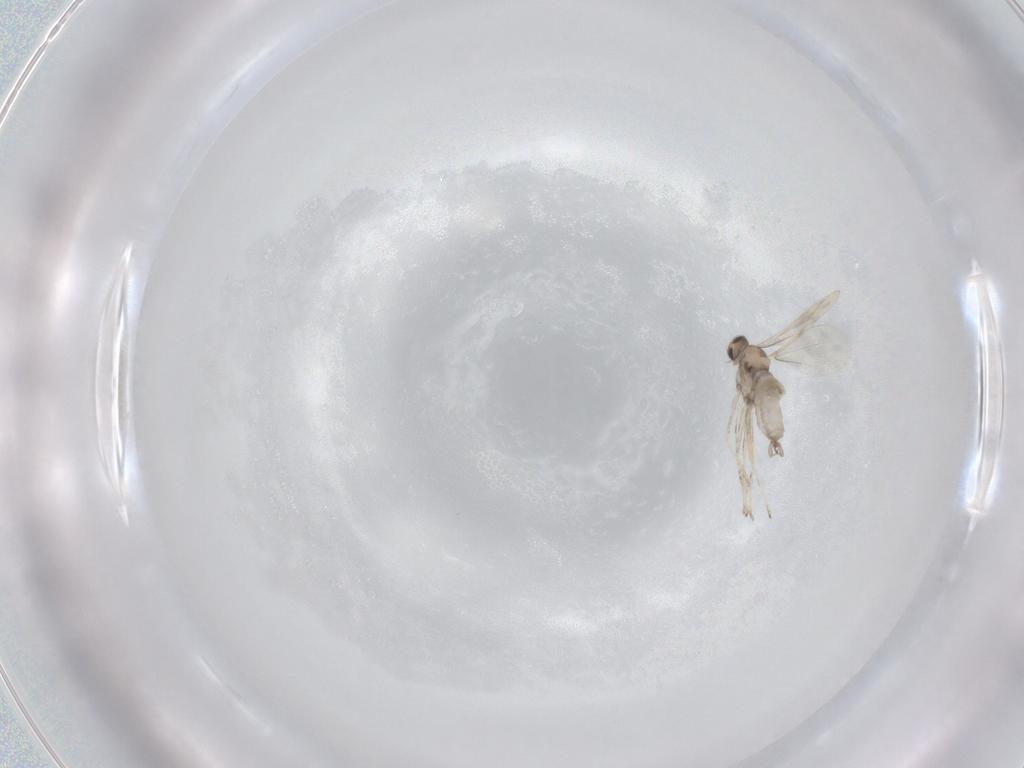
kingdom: Animalia
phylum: Arthropoda
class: Insecta
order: Diptera
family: Cecidomyiidae
